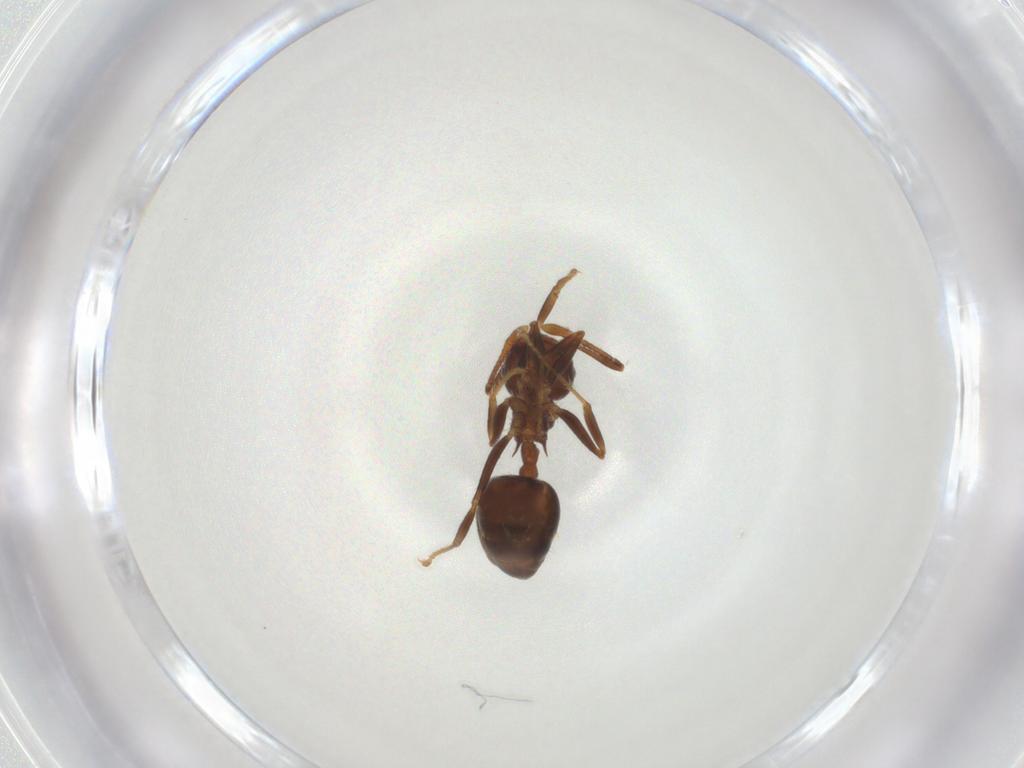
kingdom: Animalia
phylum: Arthropoda
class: Insecta
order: Hymenoptera
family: Formicidae
